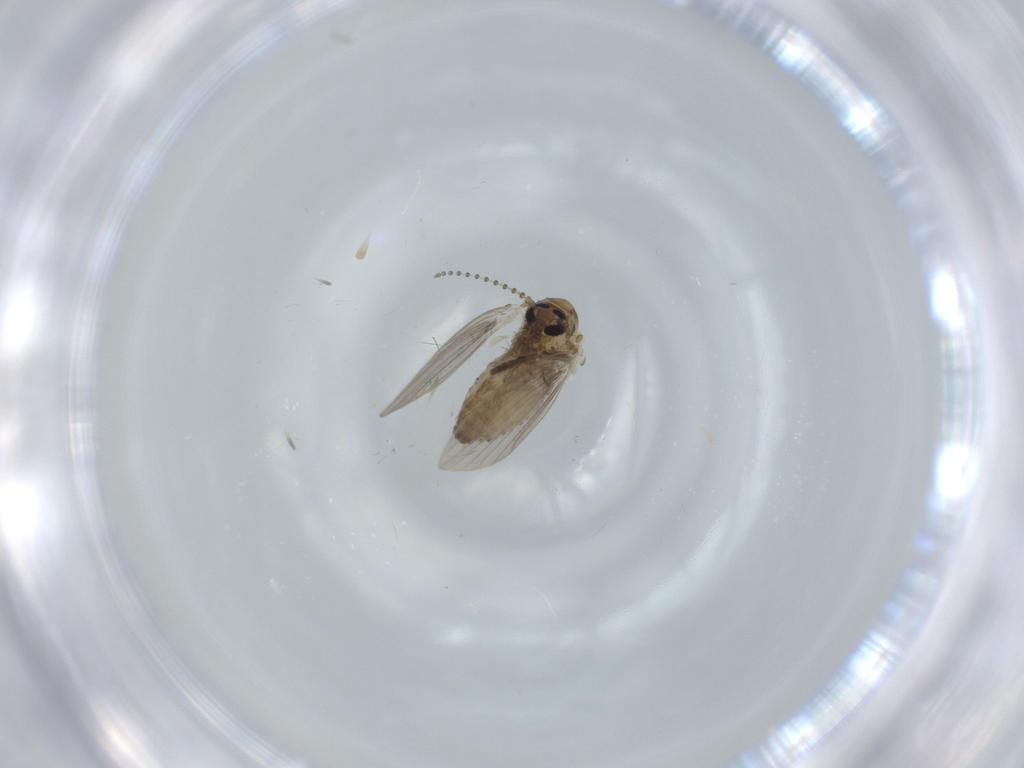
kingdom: Animalia
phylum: Arthropoda
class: Insecta
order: Diptera
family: Psychodidae
